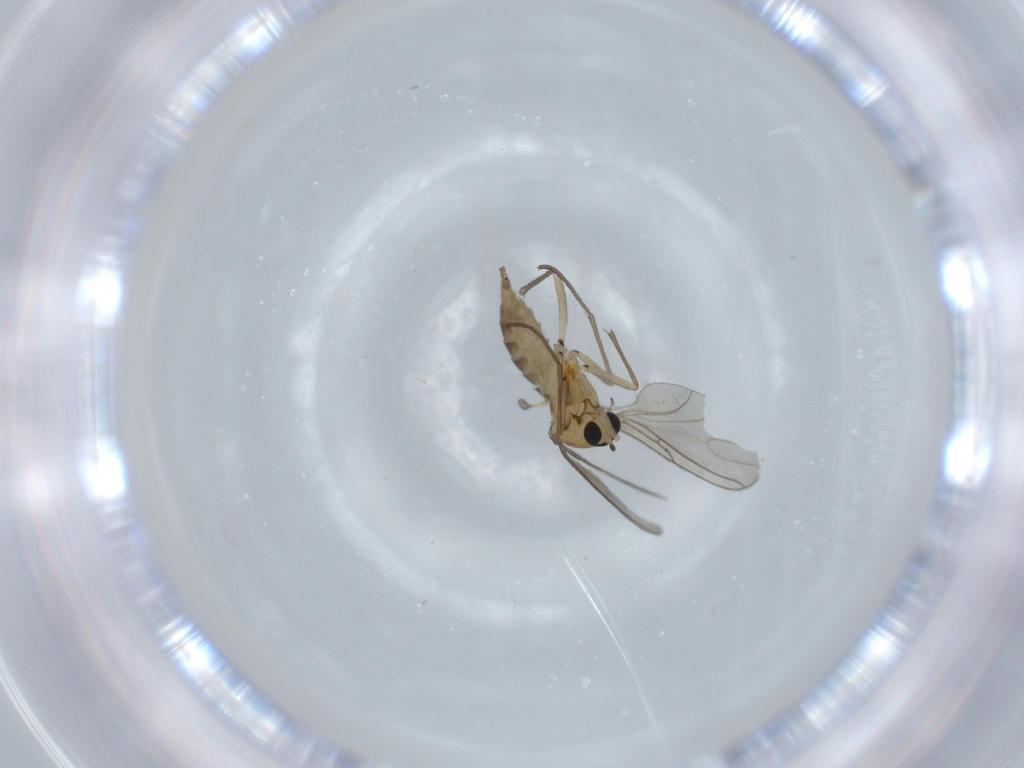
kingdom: Animalia
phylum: Arthropoda
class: Insecta
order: Diptera
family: Sciaridae
